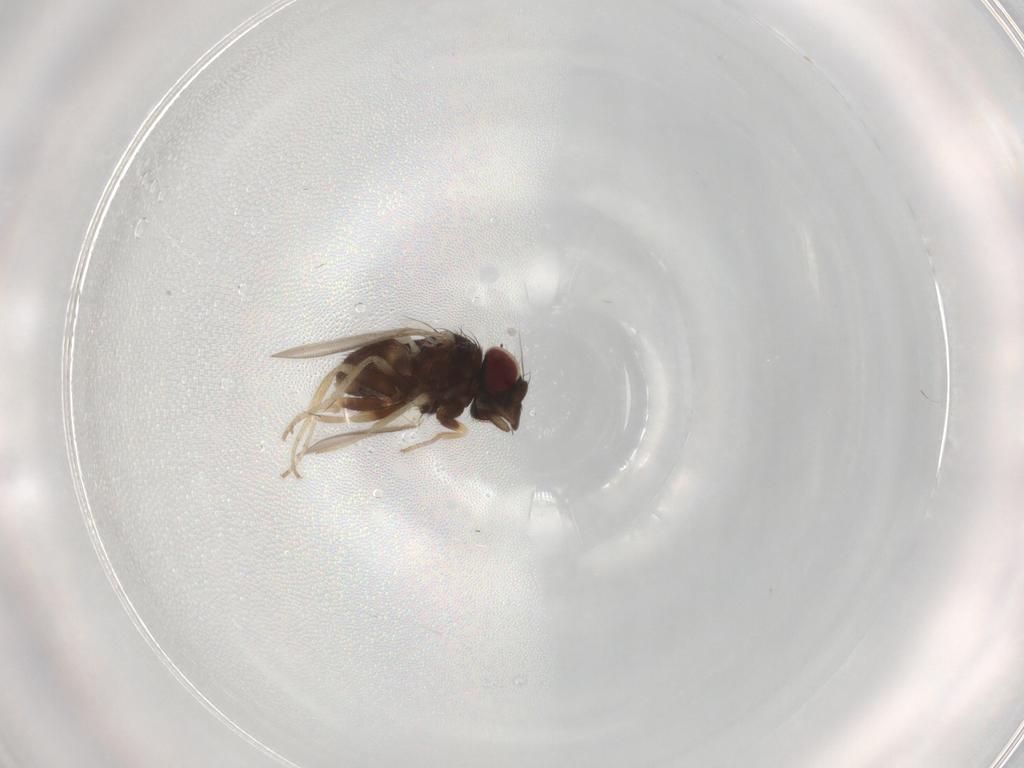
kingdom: Animalia
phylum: Arthropoda
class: Insecta
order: Diptera
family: Milichiidae
